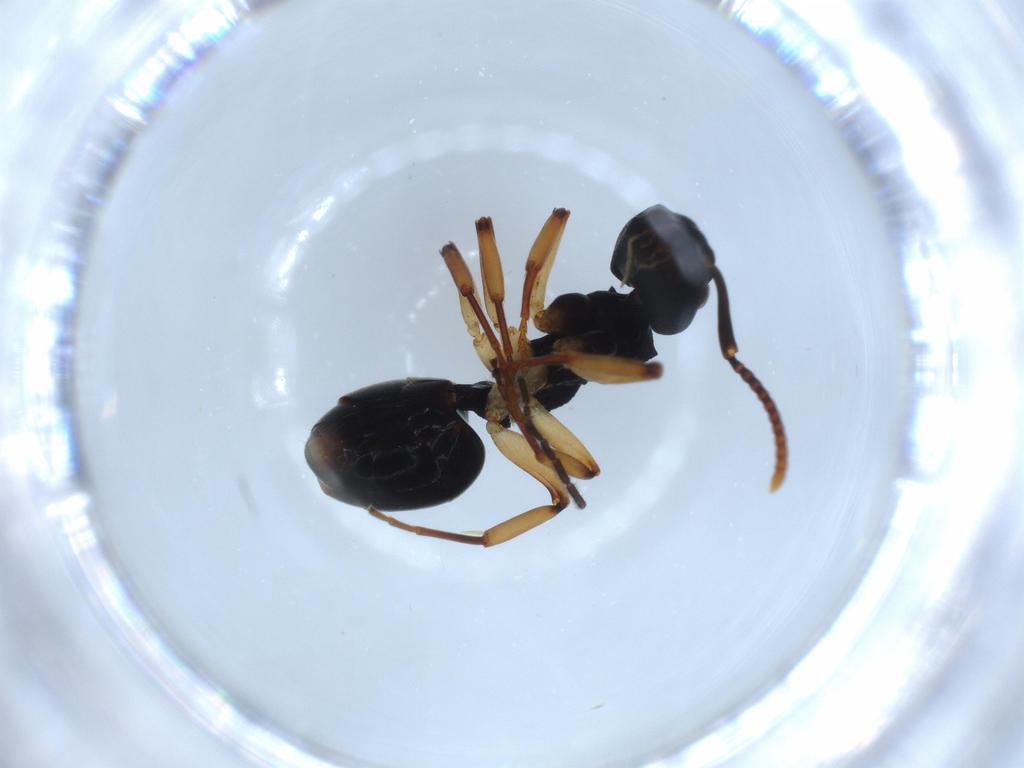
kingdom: Animalia
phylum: Arthropoda
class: Insecta
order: Hymenoptera
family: Formicidae
